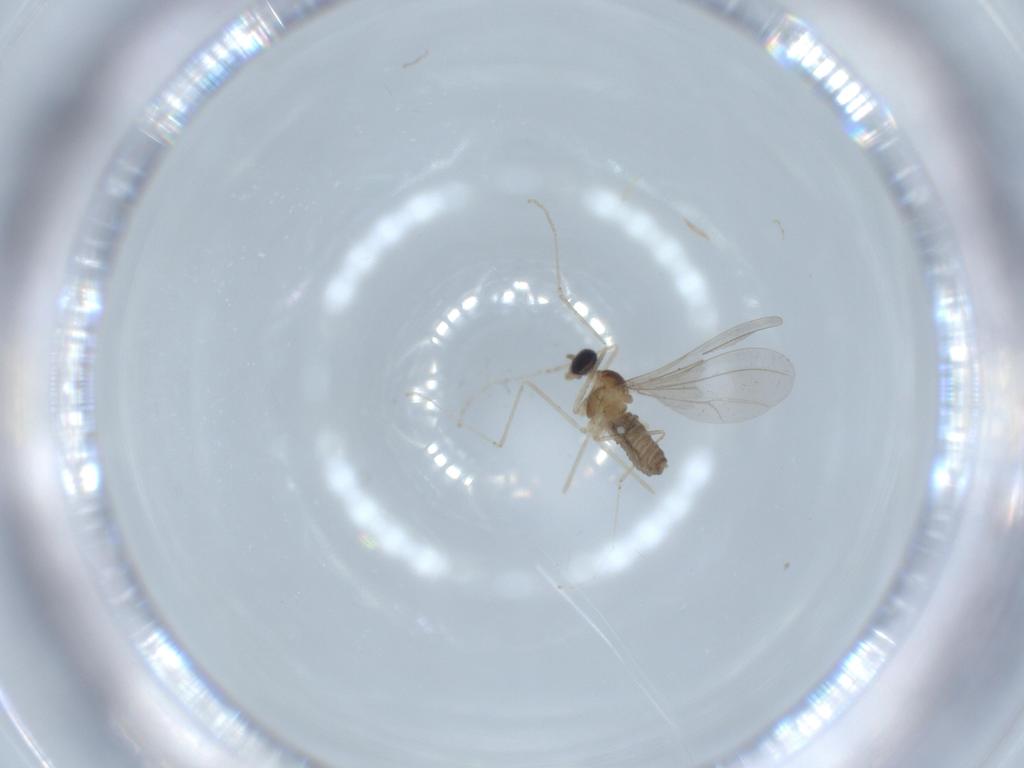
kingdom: Animalia
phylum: Arthropoda
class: Insecta
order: Diptera
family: Cecidomyiidae
